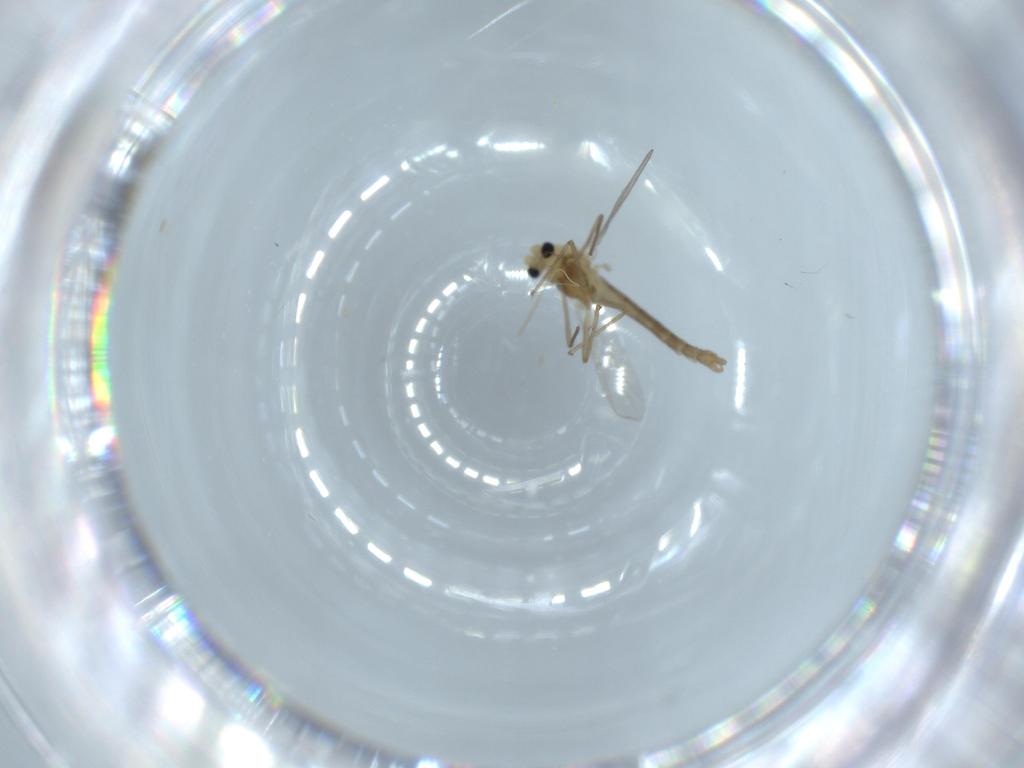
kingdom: Animalia
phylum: Arthropoda
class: Insecta
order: Diptera
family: Chironomidae
